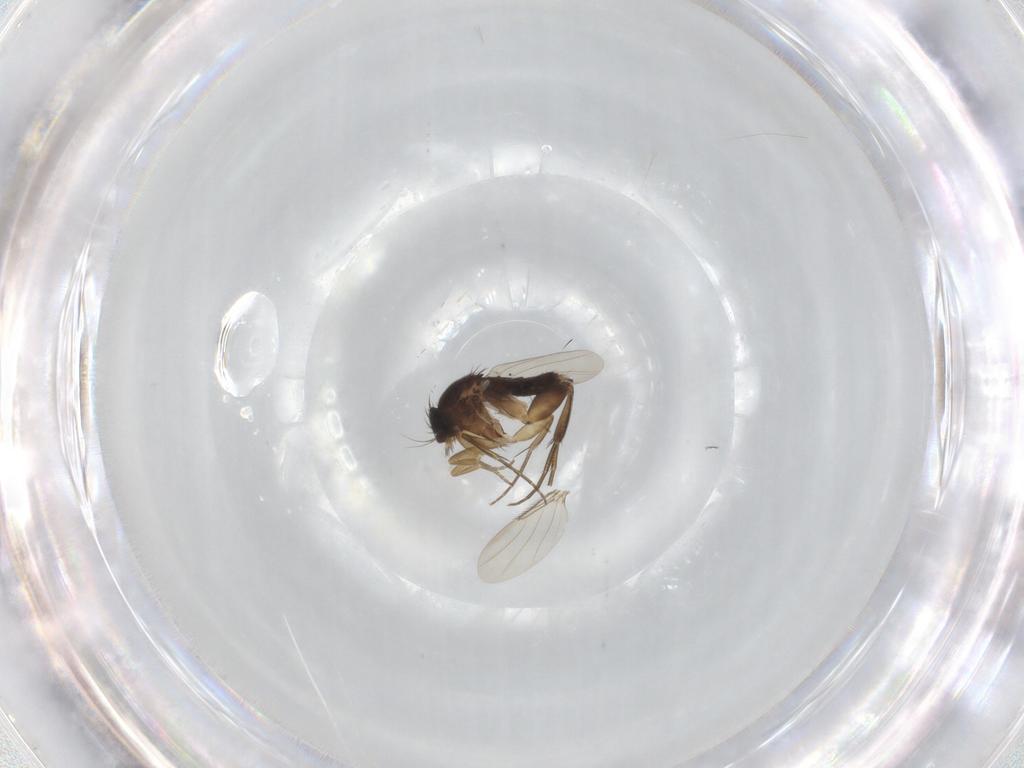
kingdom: Animalia
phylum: Arthropoda
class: Insecta
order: Diptera
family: Phoridae
